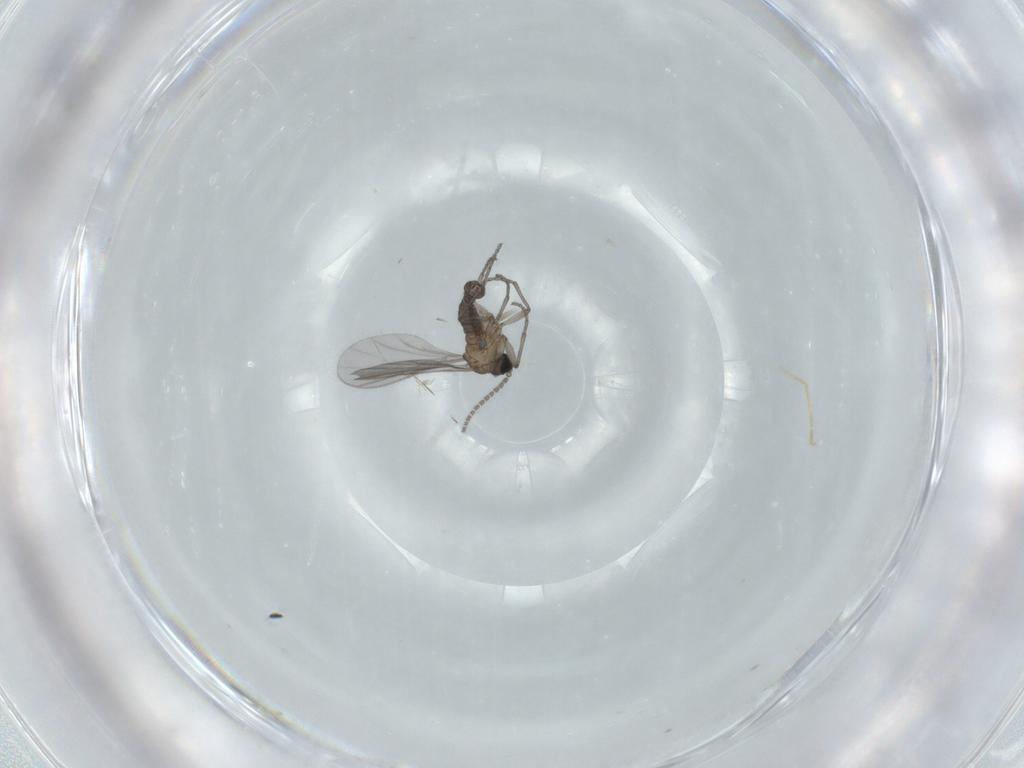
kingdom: Animalia
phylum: Arthropoda
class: Insecta
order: Diptera
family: Sciaridae
